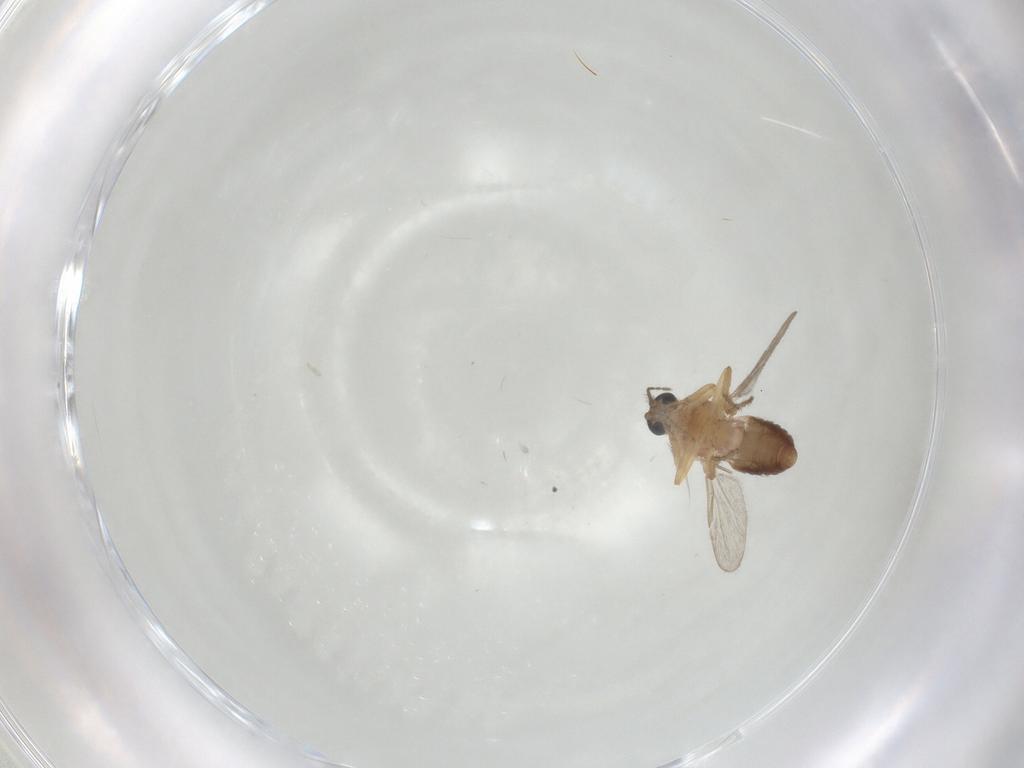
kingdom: Animalia
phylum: Arthropoda
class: Insecta
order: Diptera
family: Ceratopogonidae
